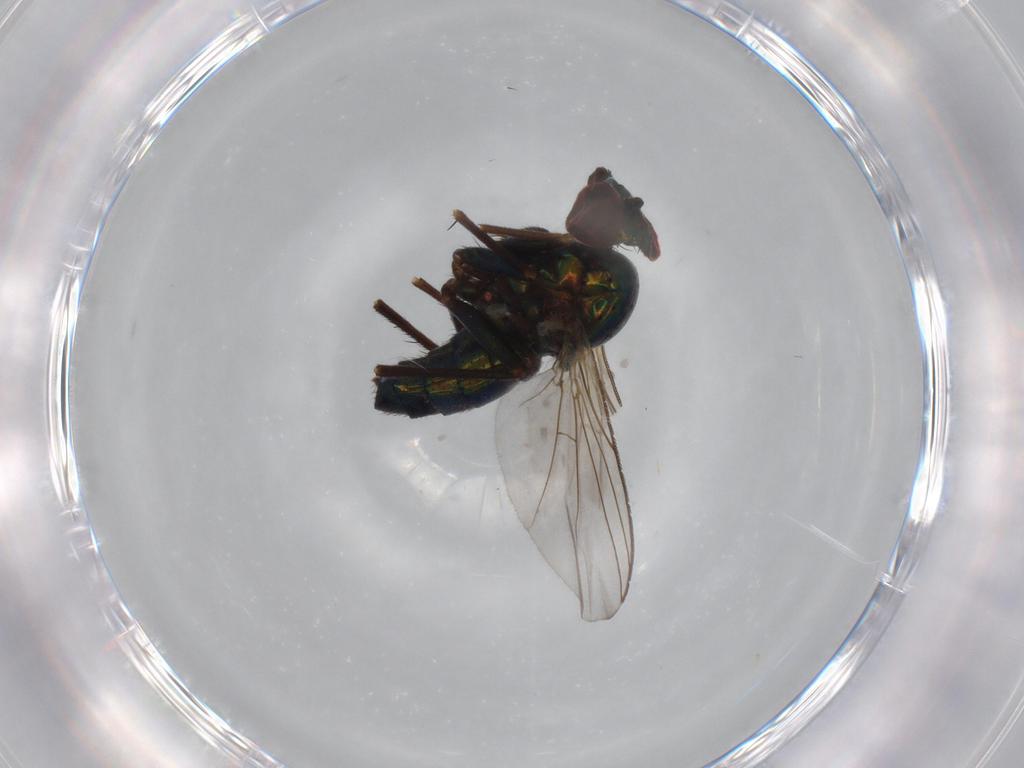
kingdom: Animalia
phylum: Arthropoda
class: Insecta
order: Diptera
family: Dolichopodidae
